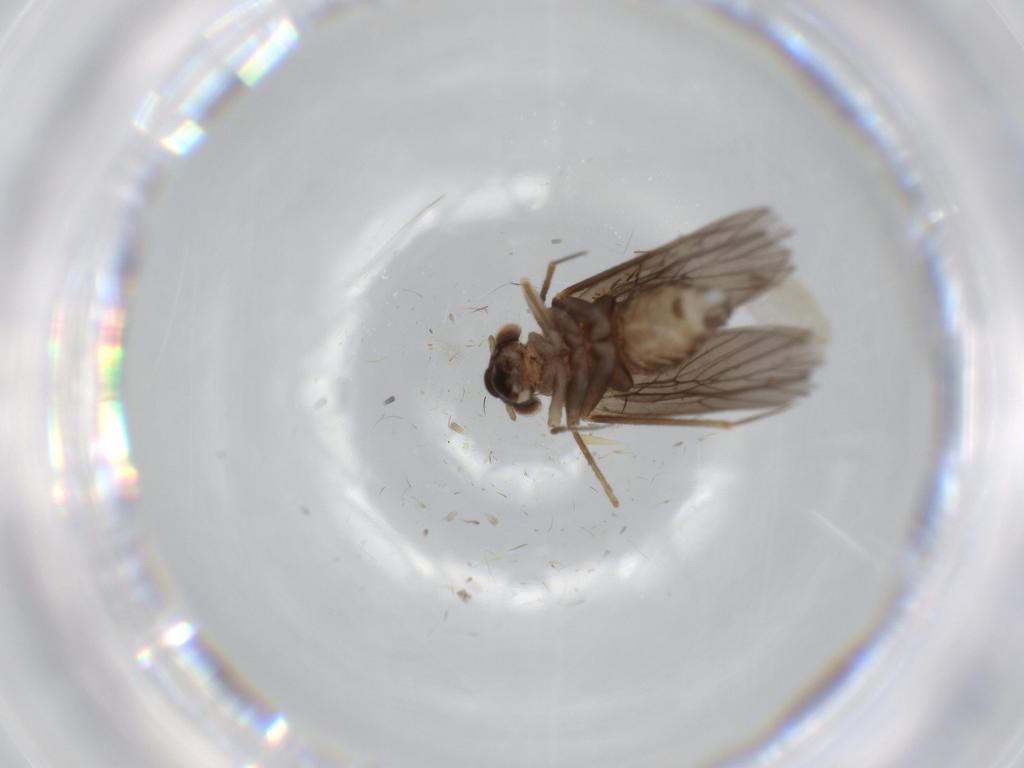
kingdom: Animalia
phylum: Arthropoda
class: Insecta
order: Psocodea
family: Lepidopsocidae
